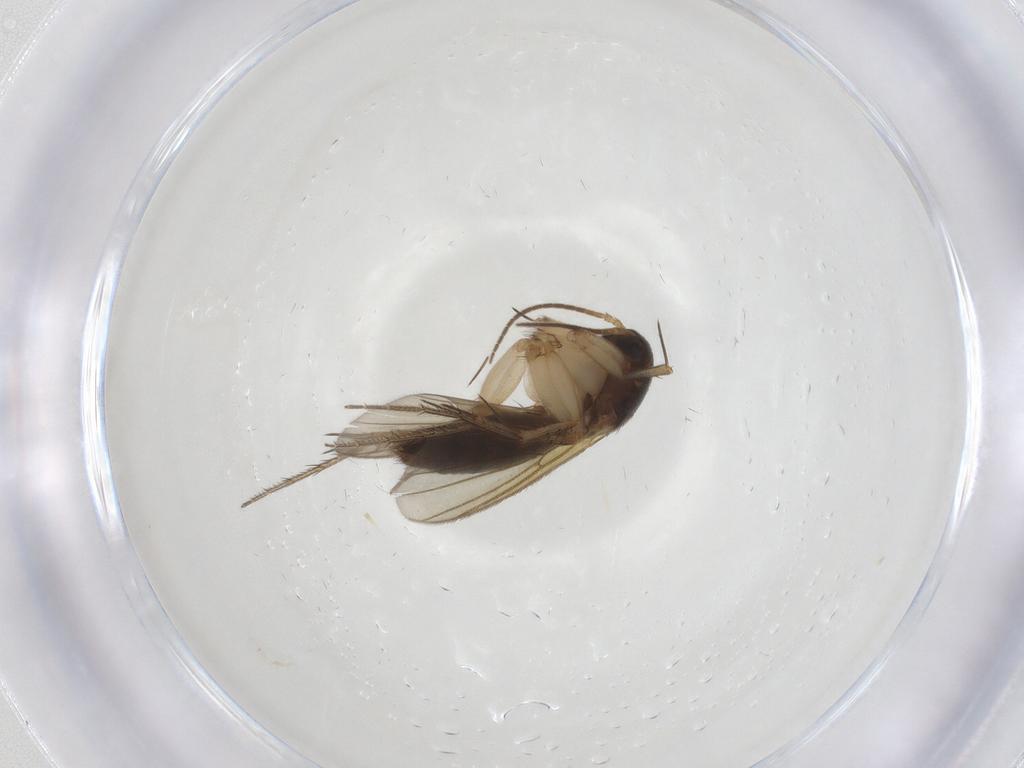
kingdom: Animalia
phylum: Arthropoda
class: Insecta
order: Diptera
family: Mycetophilidae
